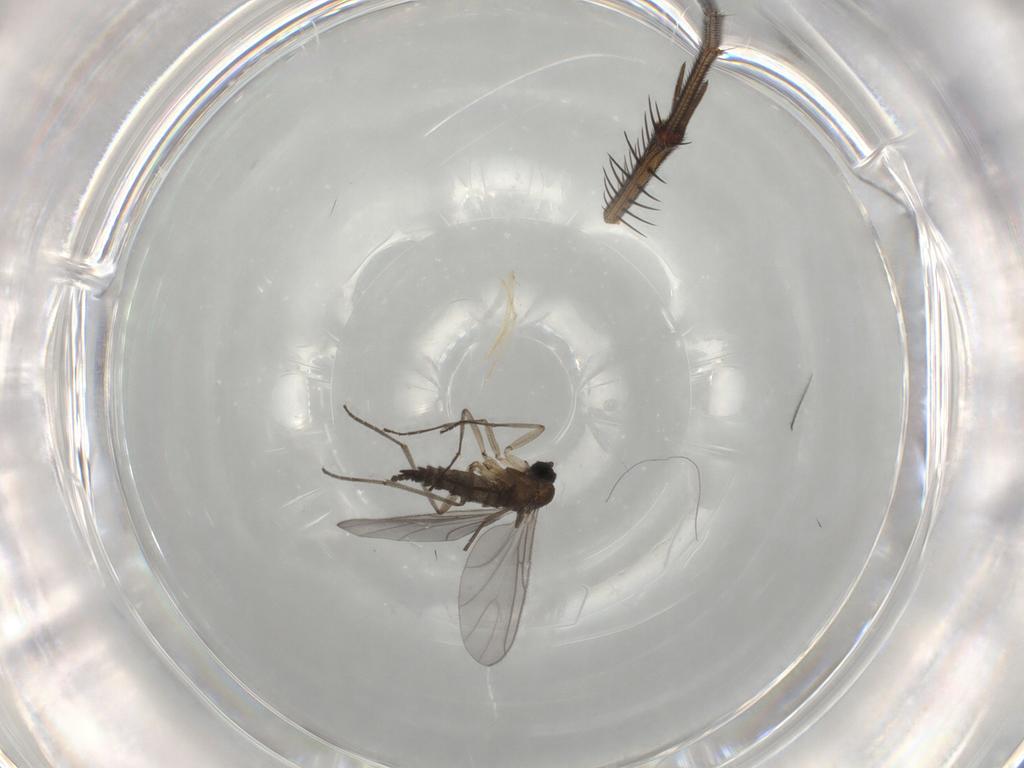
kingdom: Animalia
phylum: Arthropoda
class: Insecta
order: Diptera
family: Sciaridae
